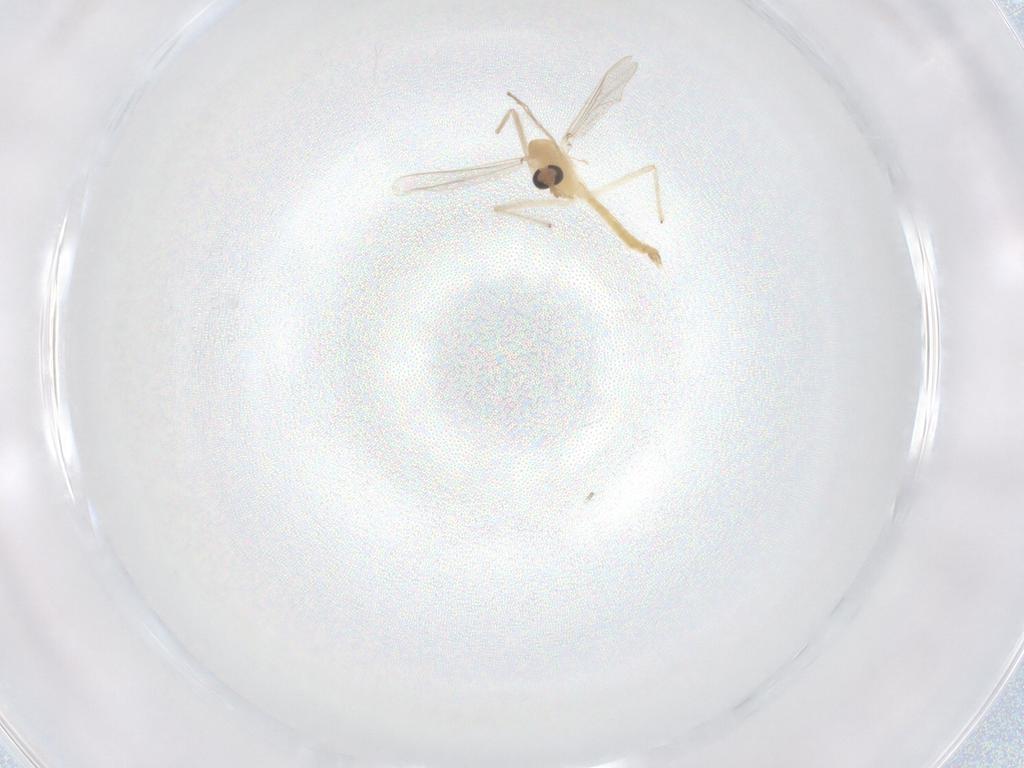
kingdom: Animalia
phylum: Arthropoda
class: Insecta
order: Diptera
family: Chironomidae
